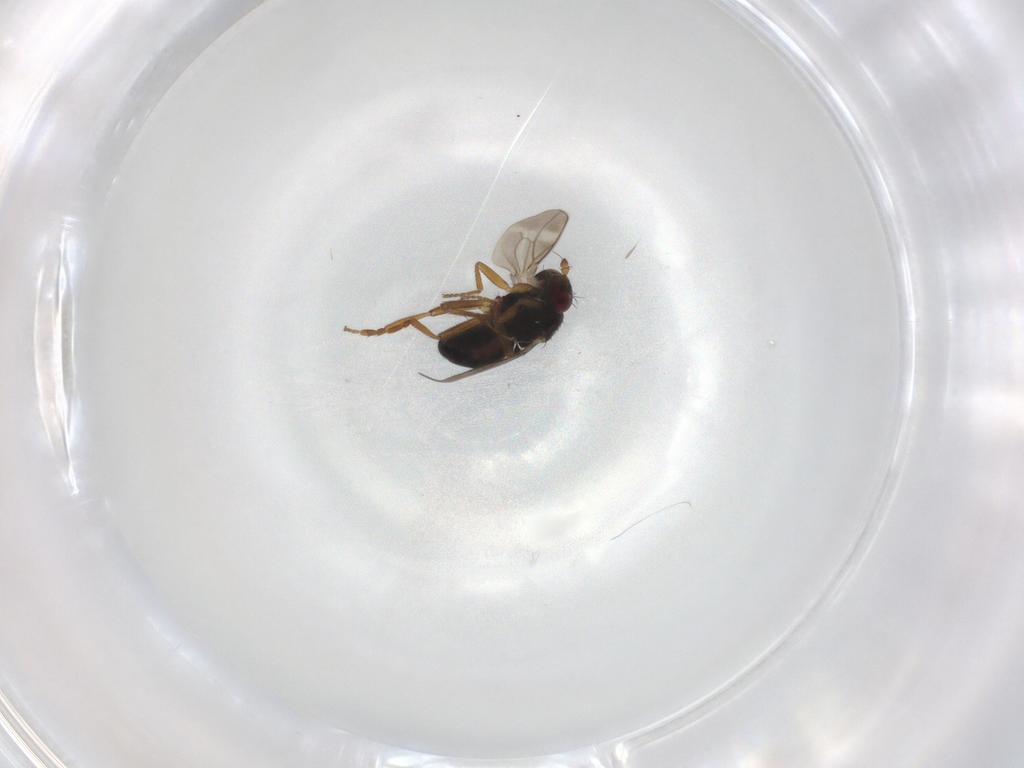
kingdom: Animalia
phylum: Arthropoda
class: Insecta
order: Diptera
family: Sphaeroceridae
